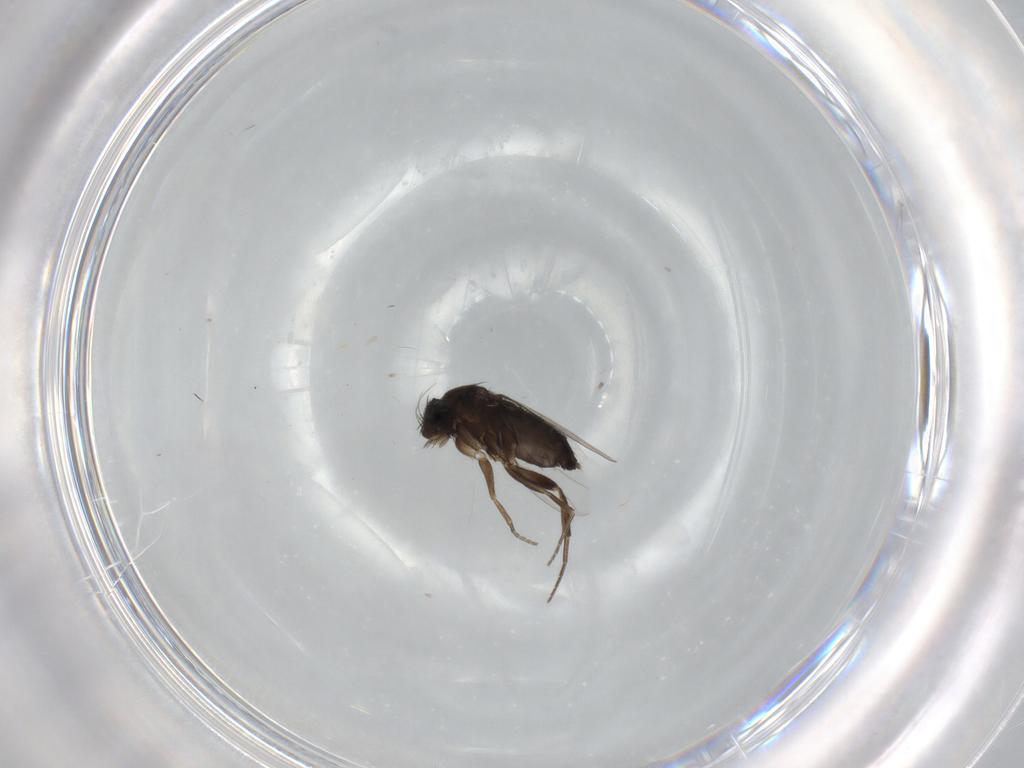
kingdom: Animalia
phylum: Arthropoda
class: Insecta
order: Diptera
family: Phoridae
